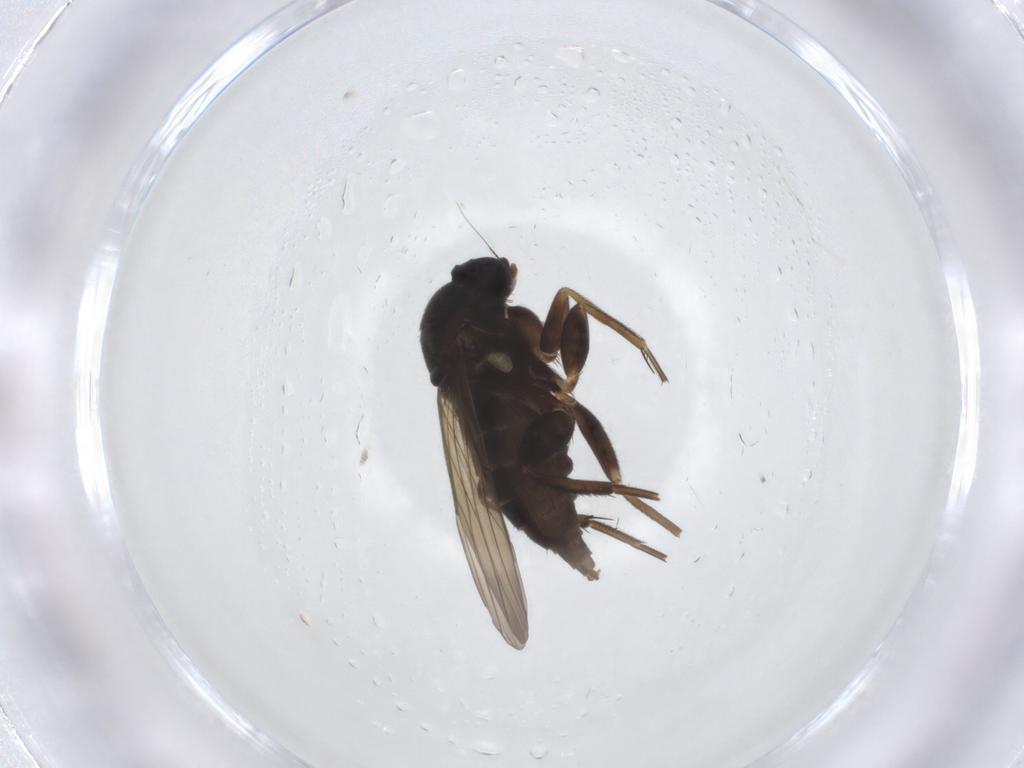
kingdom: Animalia
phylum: Arthropoda
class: Insecta
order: Diptera
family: Phoridae
